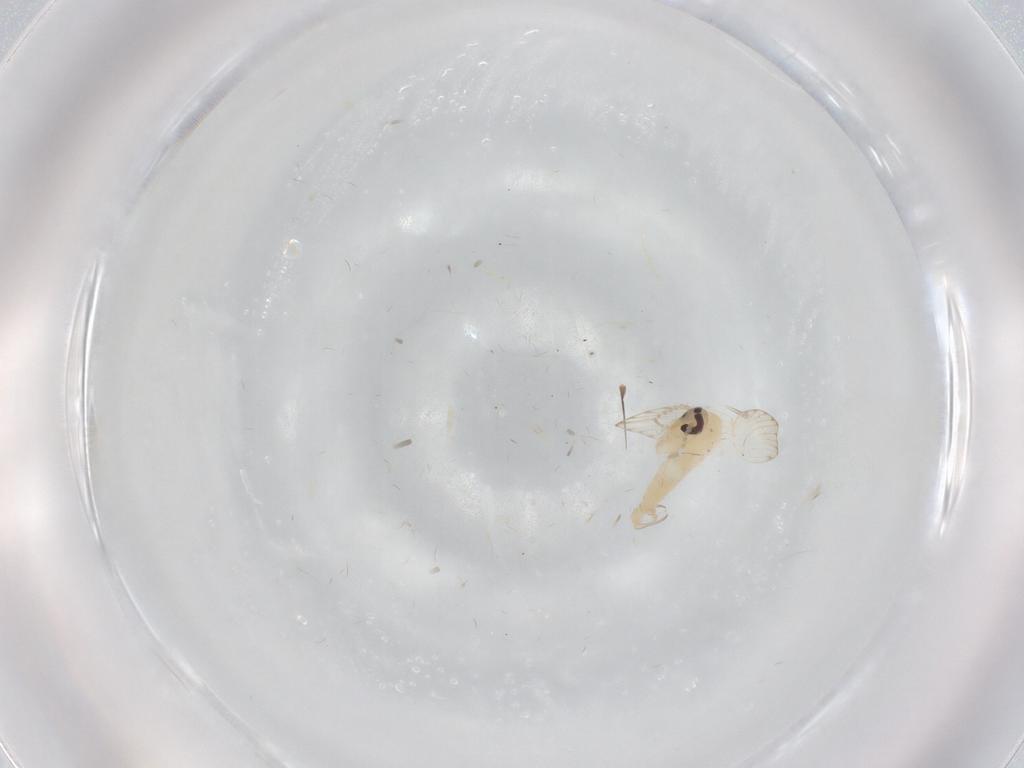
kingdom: Animalia
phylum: Arthropoda
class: Insecta
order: Diptera
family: Psychodidae
